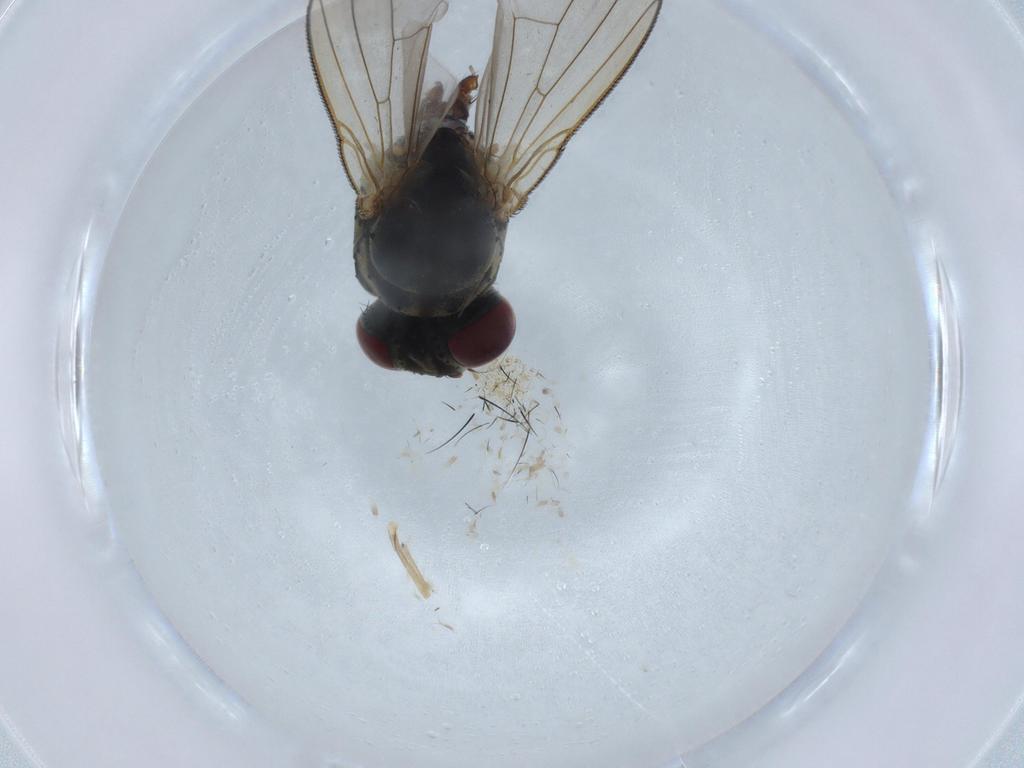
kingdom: Animalia
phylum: Arthropoda
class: Insecta
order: Diptera
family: Muscidae
